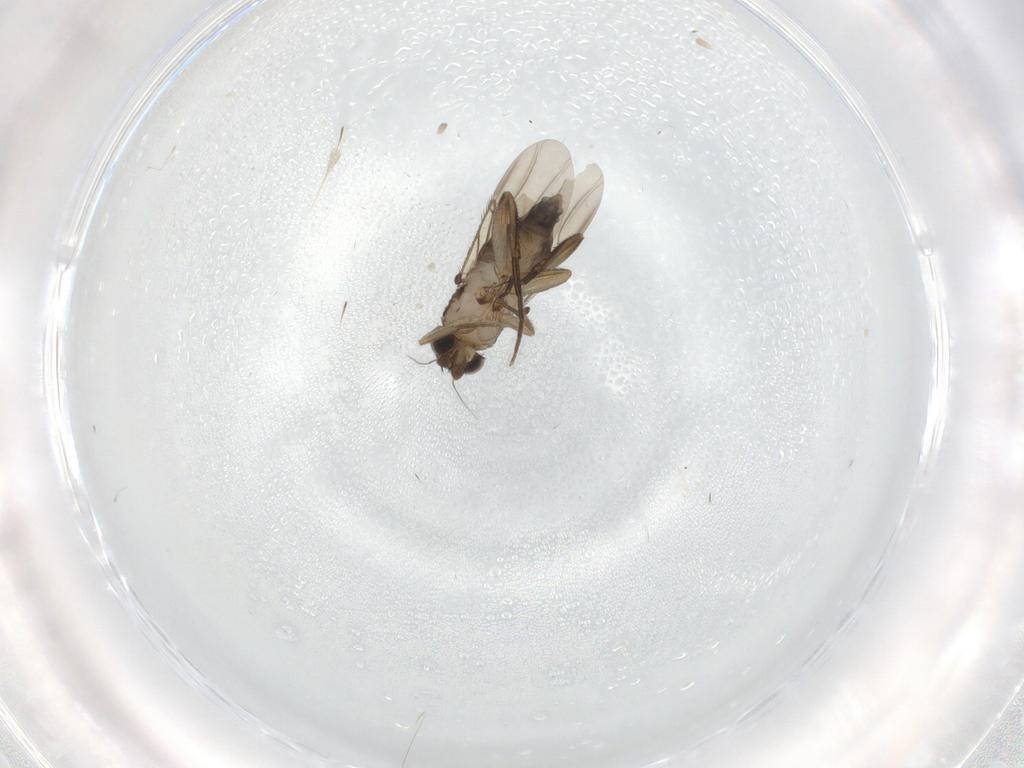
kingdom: Animalia
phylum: Arthropoda
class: Insecta
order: Diptera
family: Phoridae
